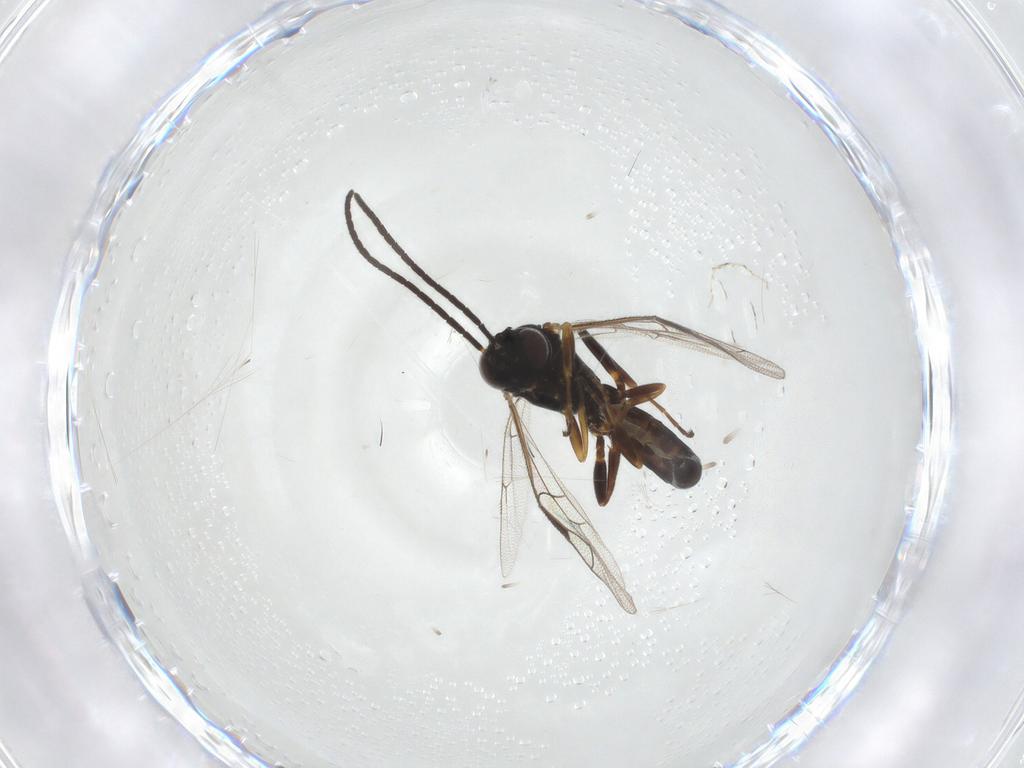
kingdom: Animalia
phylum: Arthropoda
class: Insecta
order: Hymenoptera
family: Ichneumonidae
